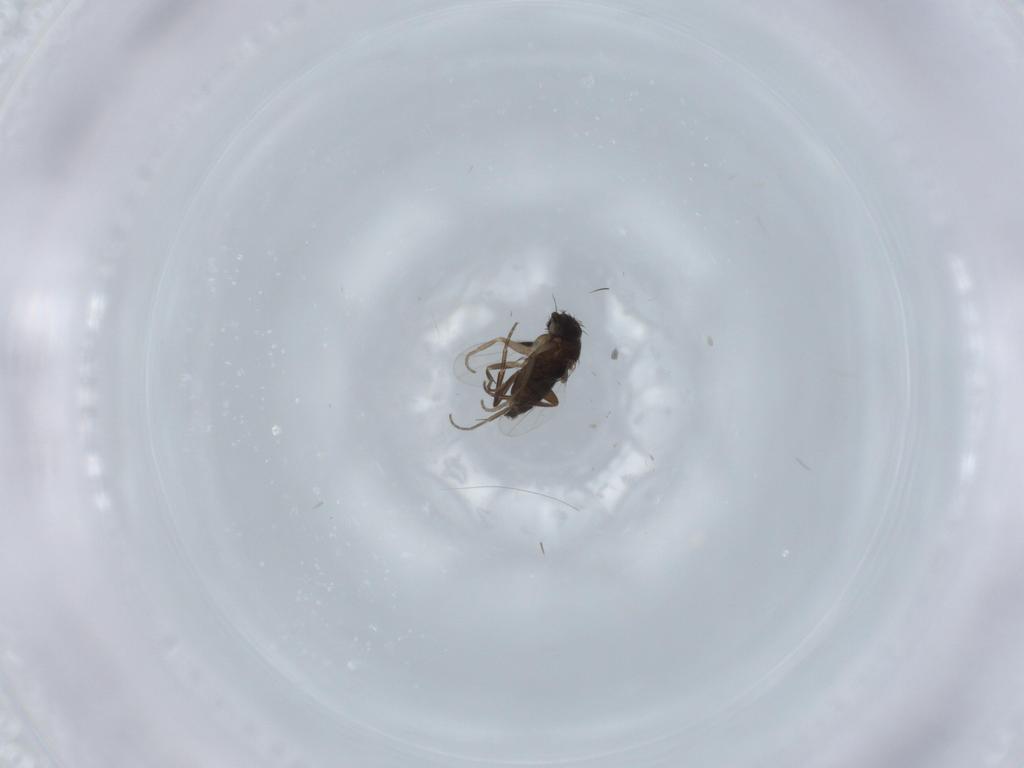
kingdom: Animalia
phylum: Arthropoda
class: Insecta
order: Diptera
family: Phoridae
